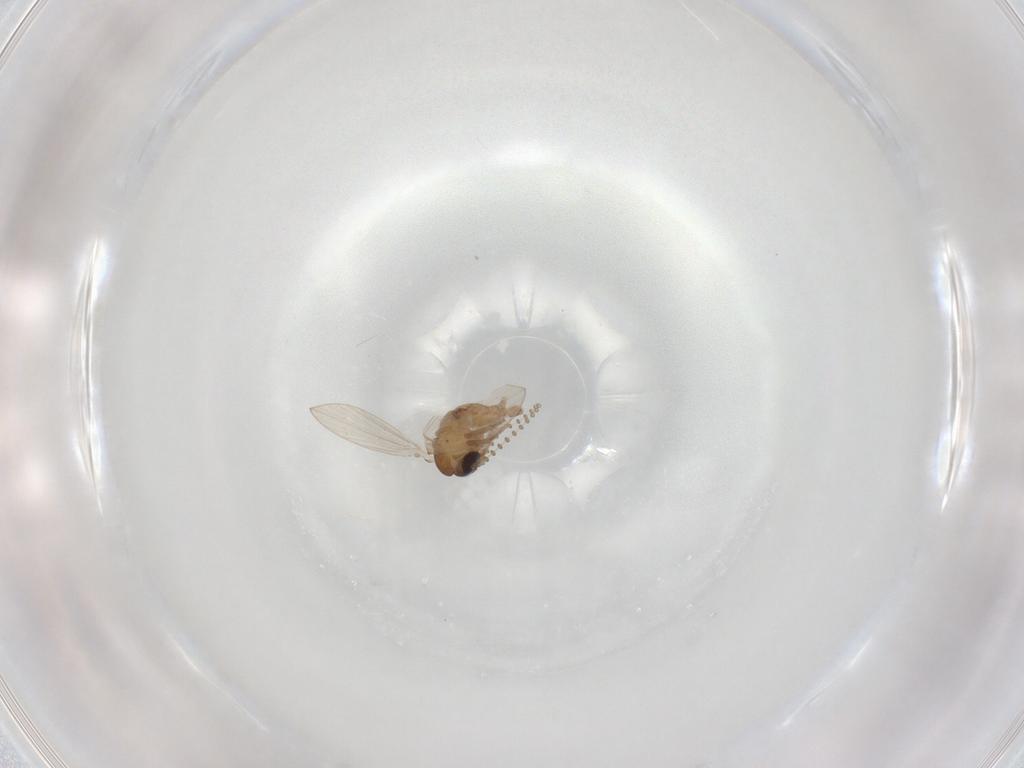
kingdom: Animalia
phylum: Arthropoda
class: Insecta
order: Diptera
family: Psychodidae
